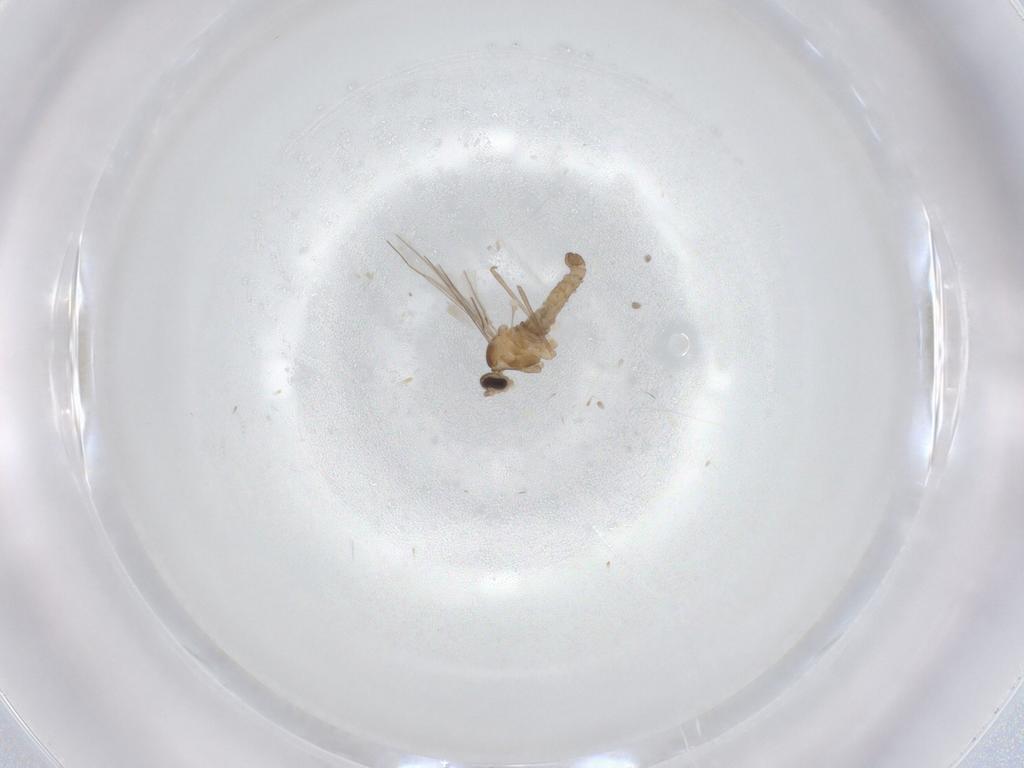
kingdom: Animalia
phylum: Arthropoda
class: Insecta
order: Diptera
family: Cecidomyiidae
